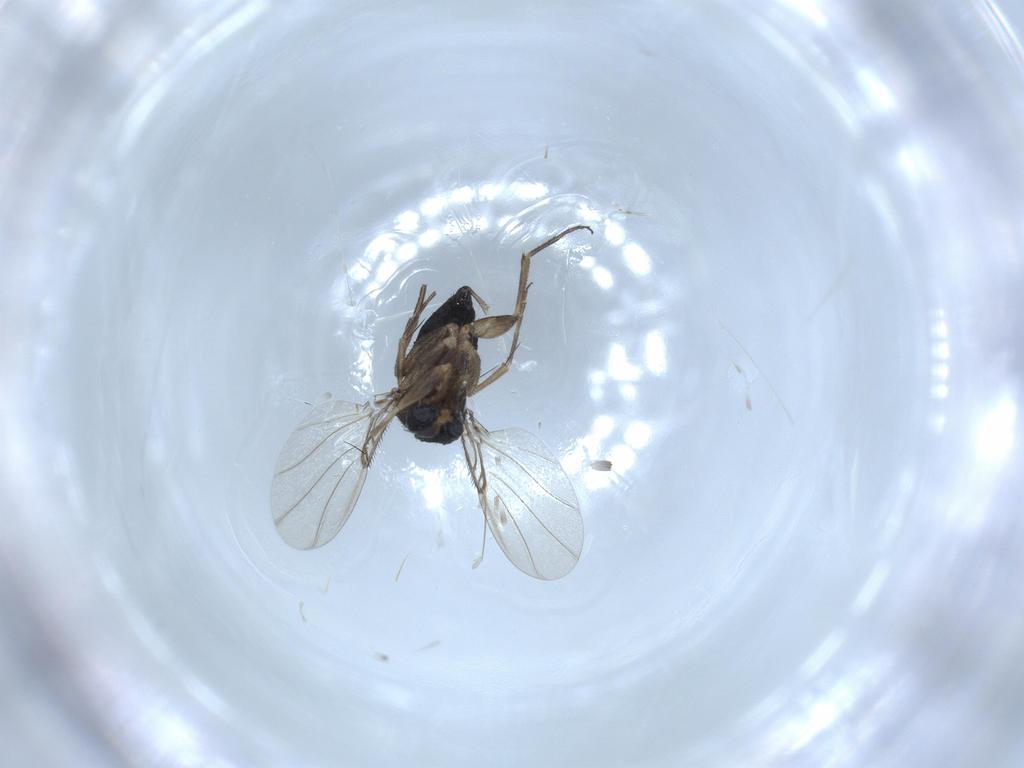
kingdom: Animalia
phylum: Arthropoda
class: Insecta
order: Diptera
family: Phoridae
